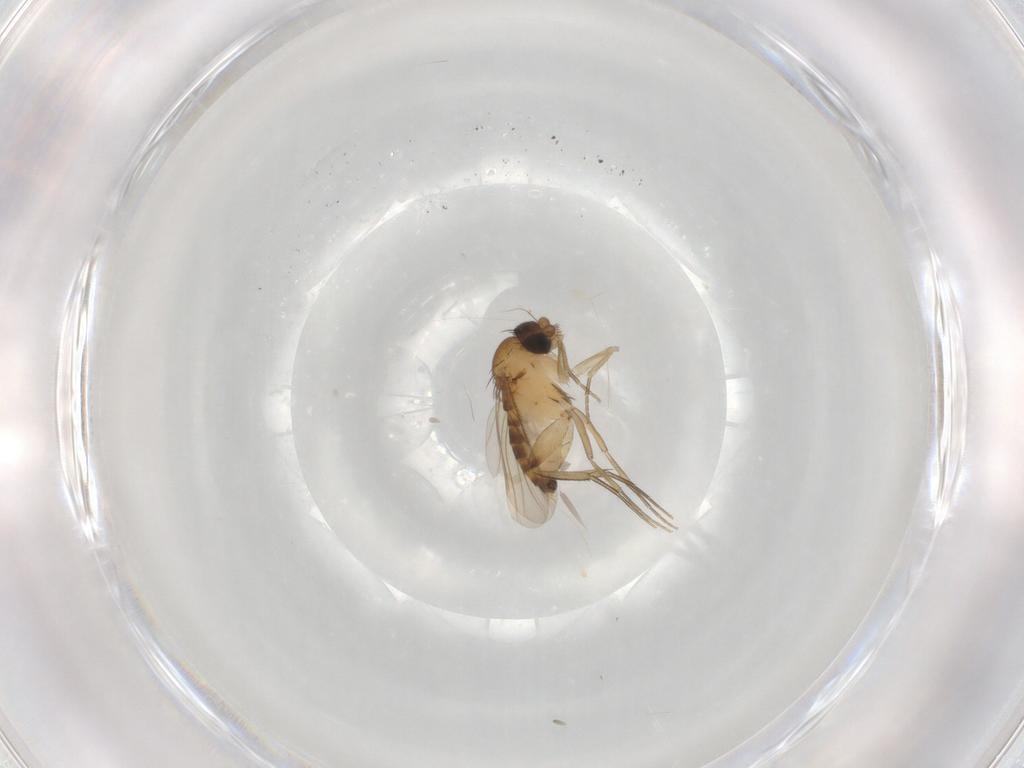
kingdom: Animalia
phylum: Arthropoda
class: Insecta
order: Diptera
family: Phoridae
